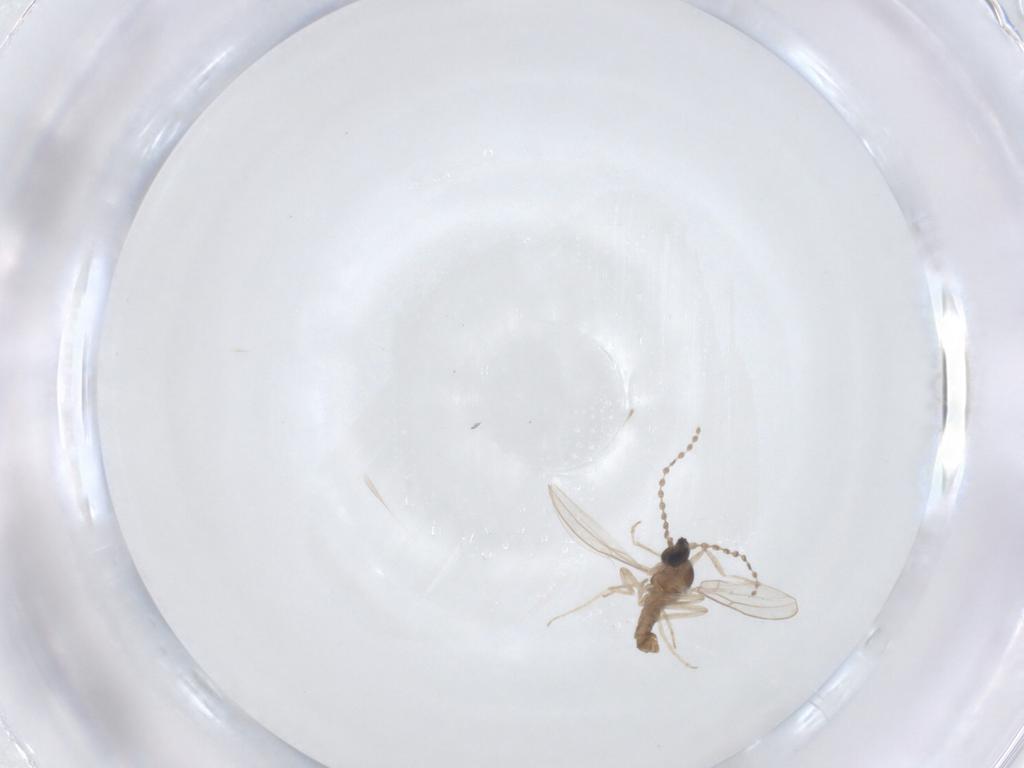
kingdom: Animalia
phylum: Arthropoda
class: Insecta
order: Diptera
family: Cecidomyiidae
